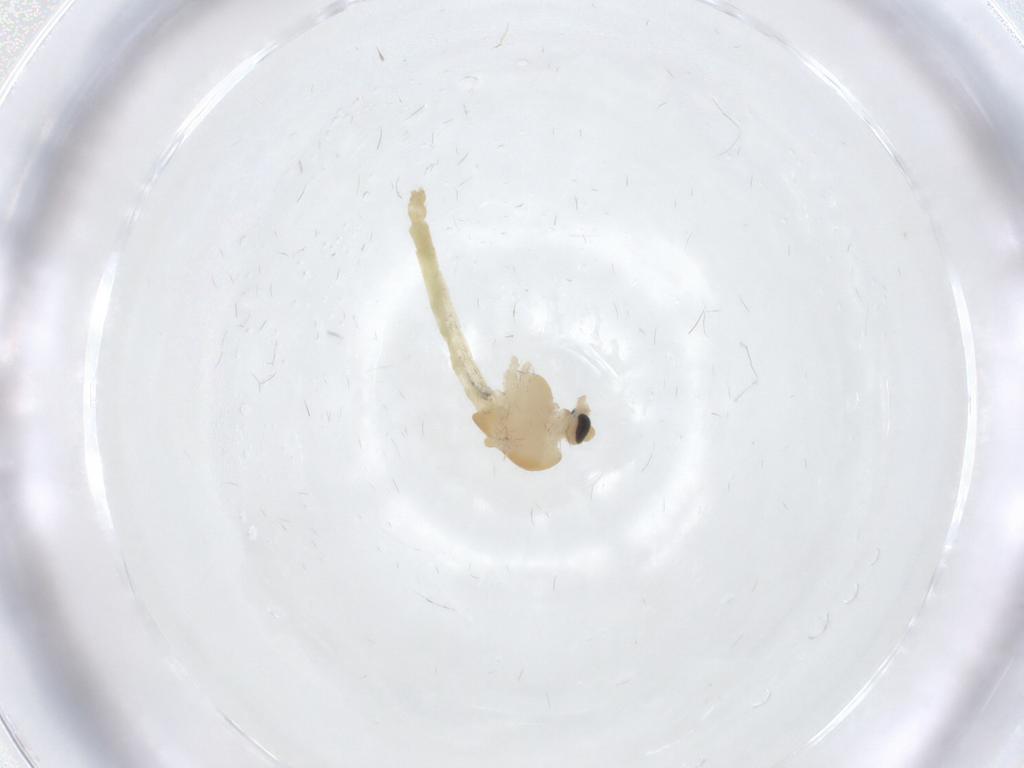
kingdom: Animalia
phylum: Arthropoda
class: Insecta
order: Diptera
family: Chironomidae
